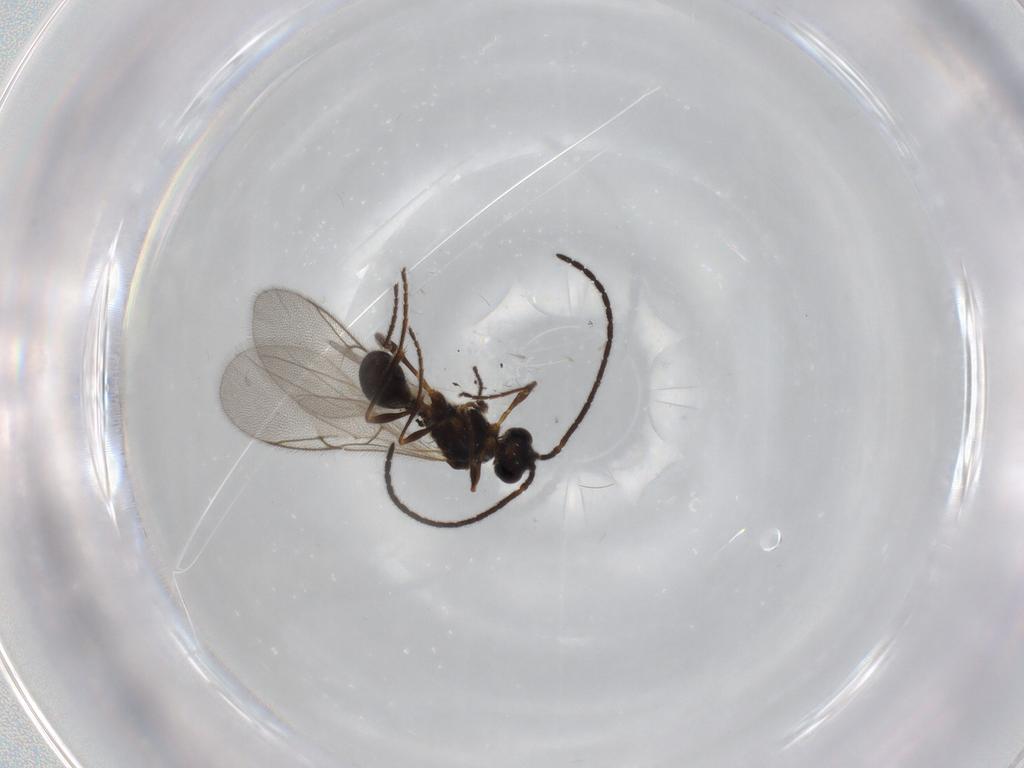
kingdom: Animalia
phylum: Arthropoda
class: Insecta
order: Hymenoptera
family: Diapriidae
